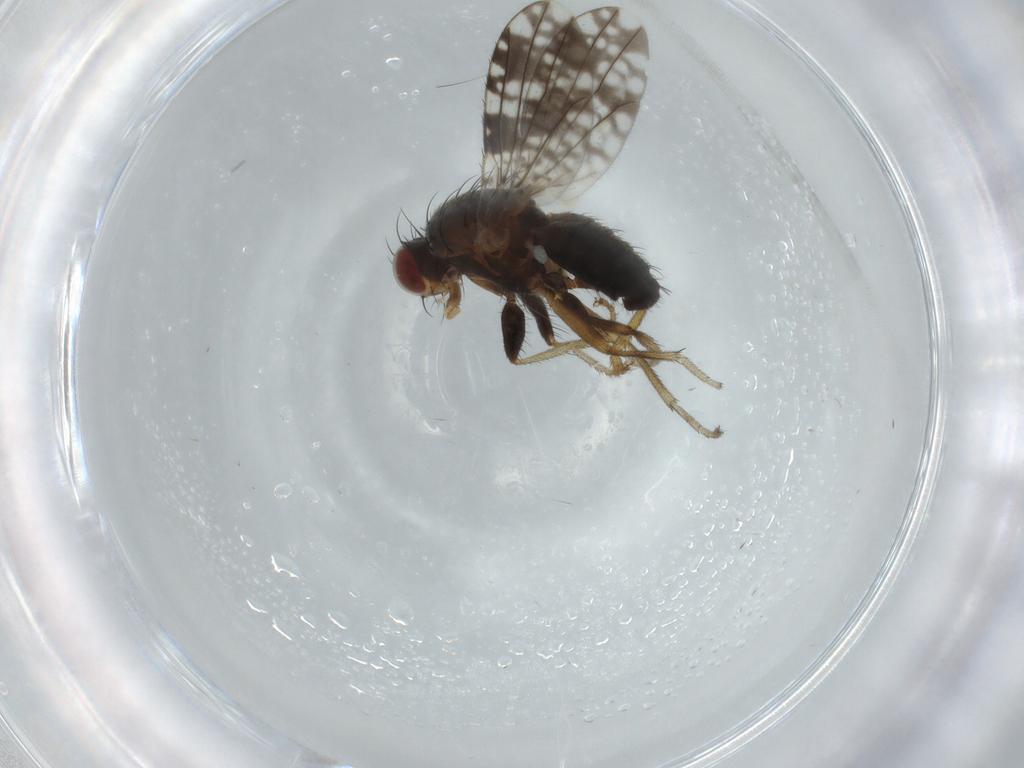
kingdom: Animalia
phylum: Arthropoda
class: Insecta
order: Diptera
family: Tephritidae
